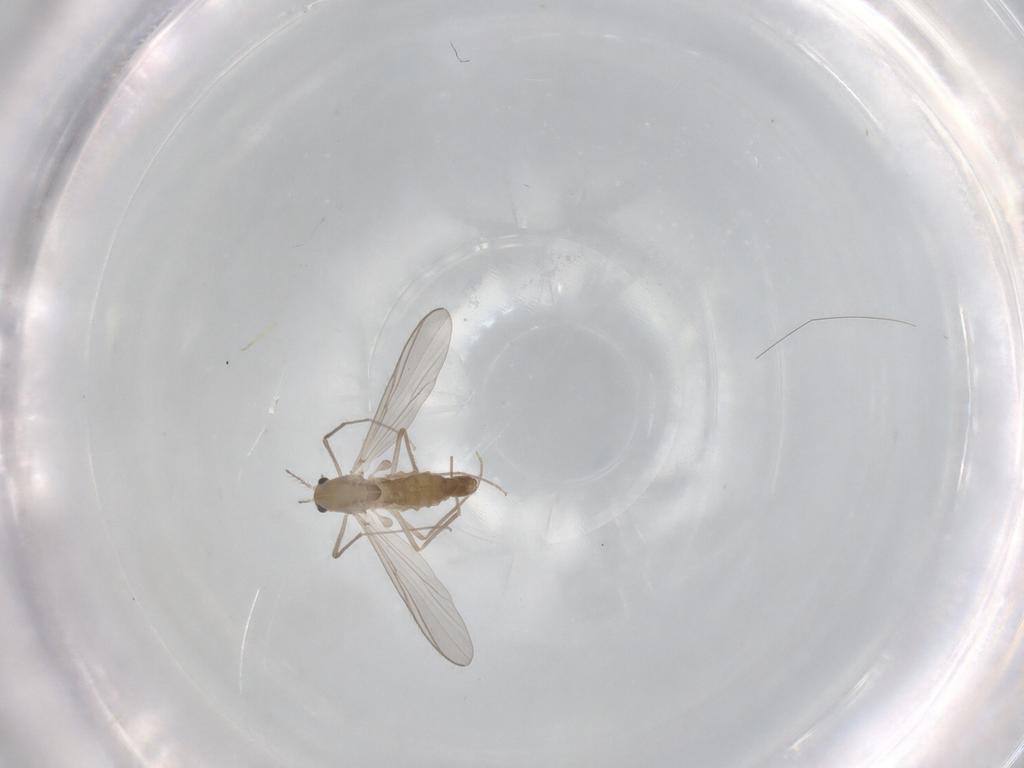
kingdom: Animalia
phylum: Arthropoda
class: Insecta
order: Diptera
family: Chironomidae
